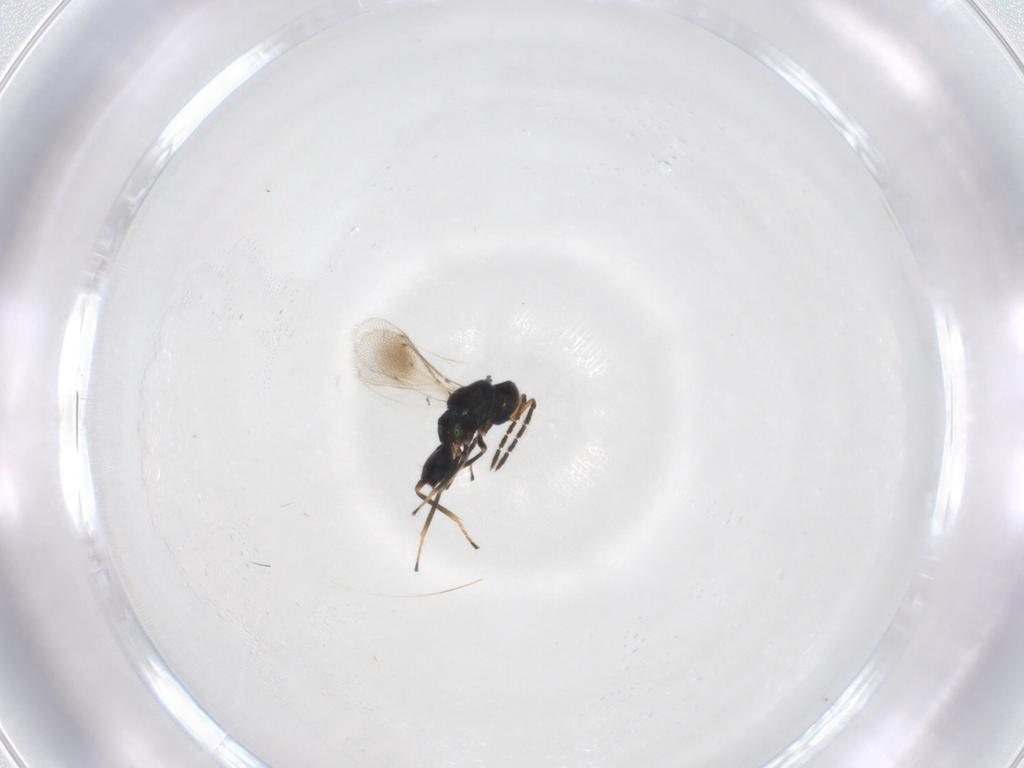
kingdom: Animalia
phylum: Arthropoda
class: Insecta
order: Hymenoptera
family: Eulophidae
